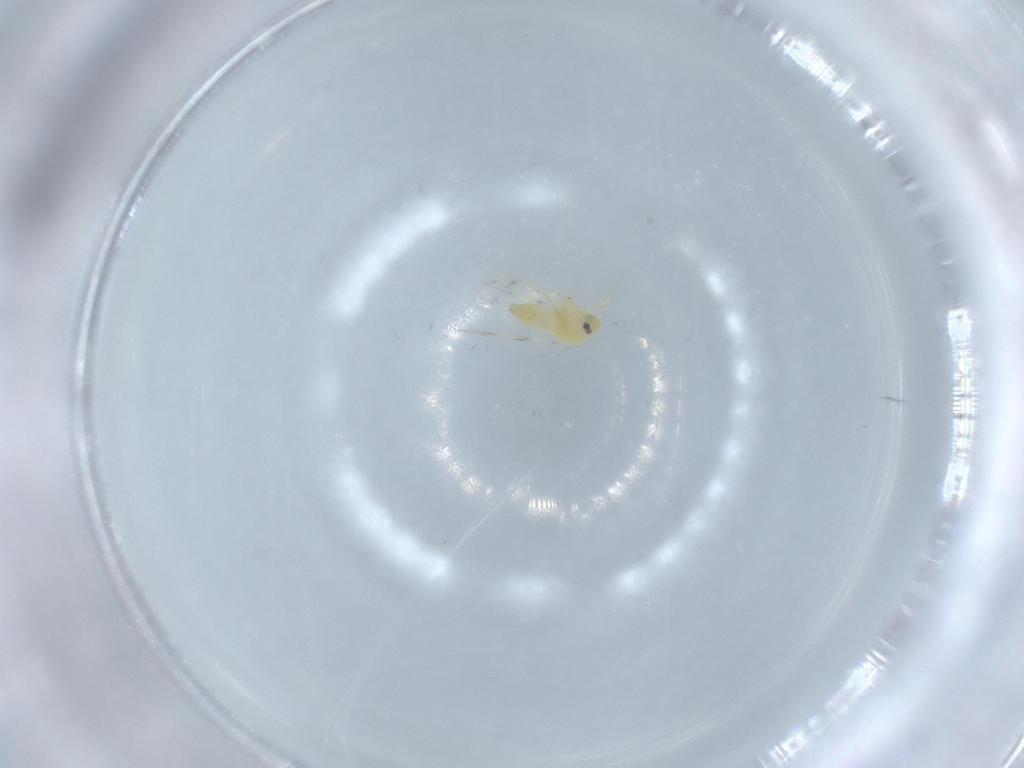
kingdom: Animalia
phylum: Arthropoda
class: Insecta
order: Hemiptera
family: Aleyrodidae
